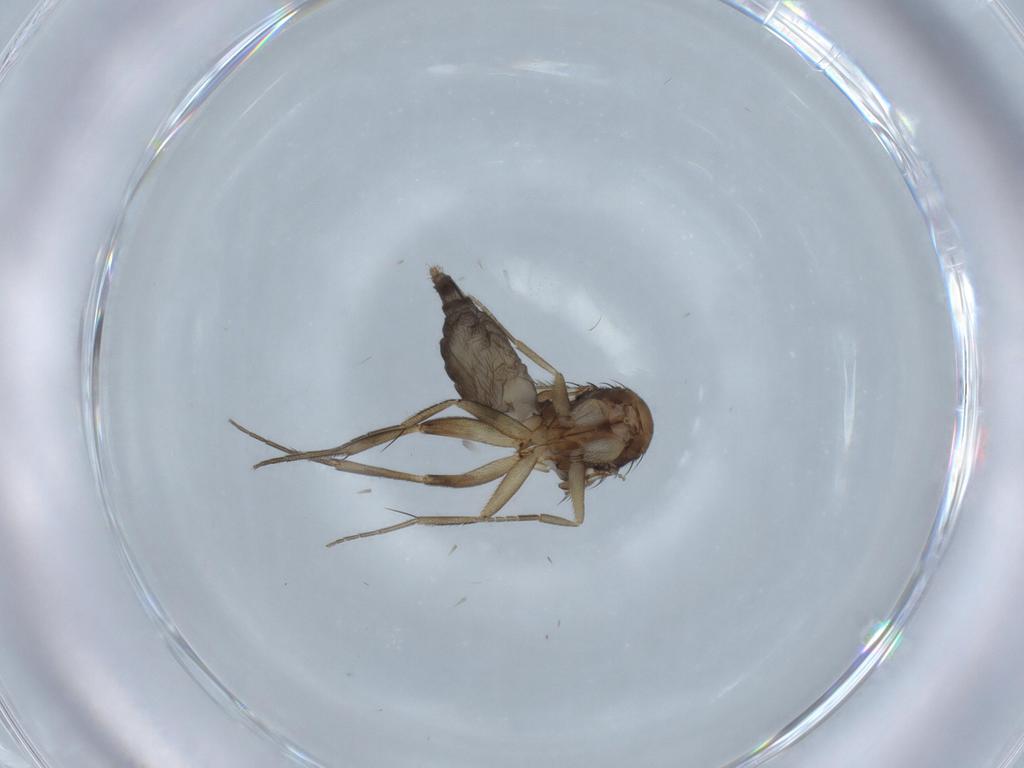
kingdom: Animalia
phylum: Arthropoda
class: Insecta
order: Diptera
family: Phoridae
